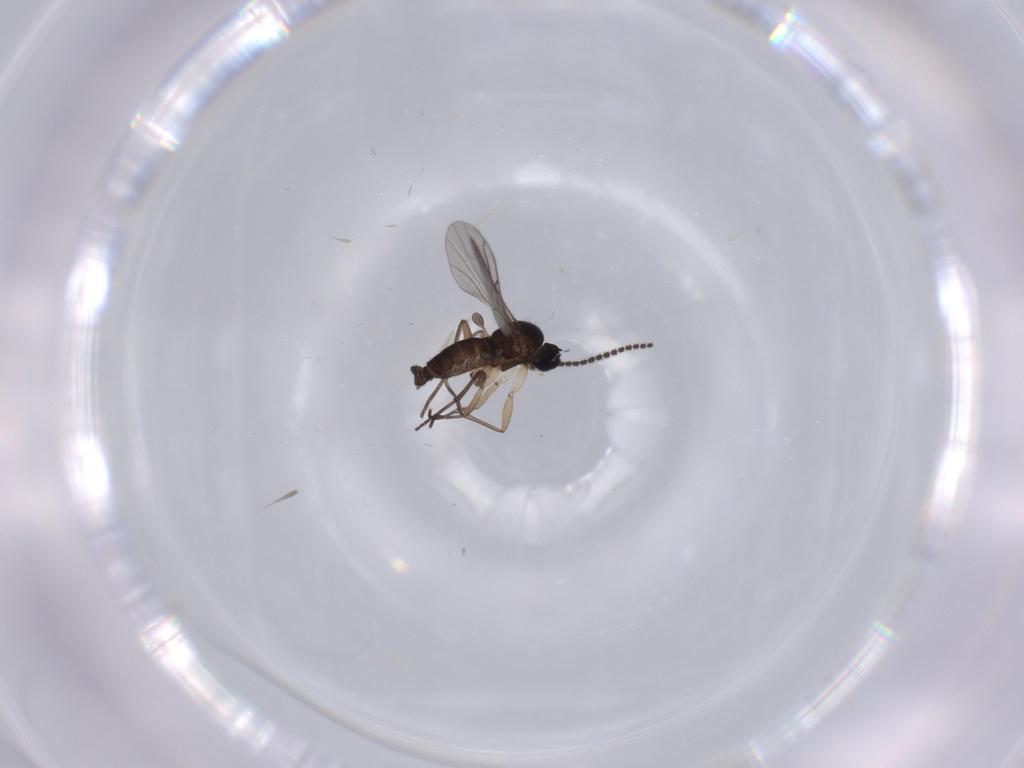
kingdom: Animalia
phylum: Arthropoda
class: Insecta
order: Diptera
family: Sciaridae
